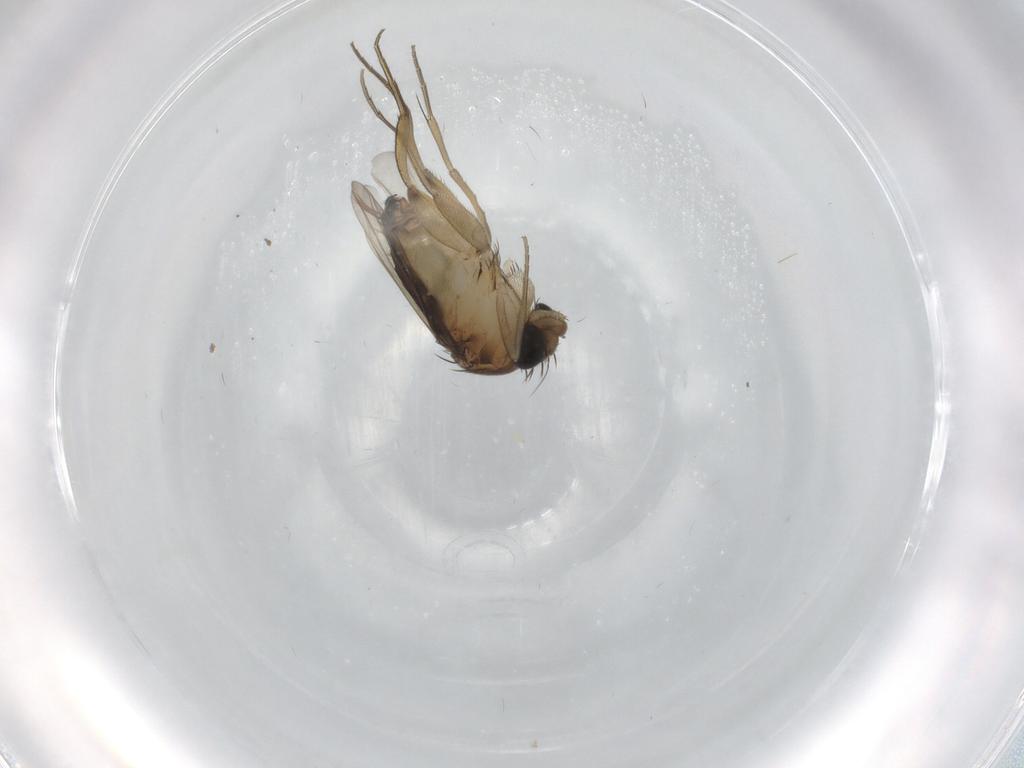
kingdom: Animalia
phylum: Arthropoda
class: Insecta
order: Diptera
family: Phoridae
